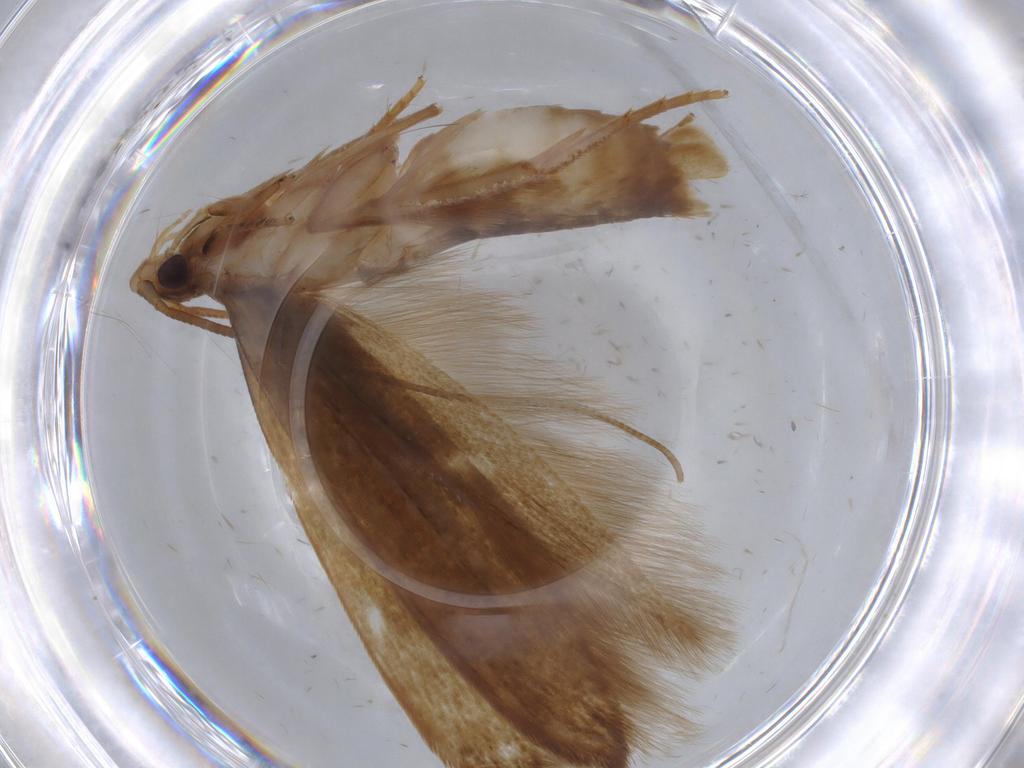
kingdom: Animalia
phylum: Arthropoda
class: Insecta
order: Lepidoptera
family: Tineidae
